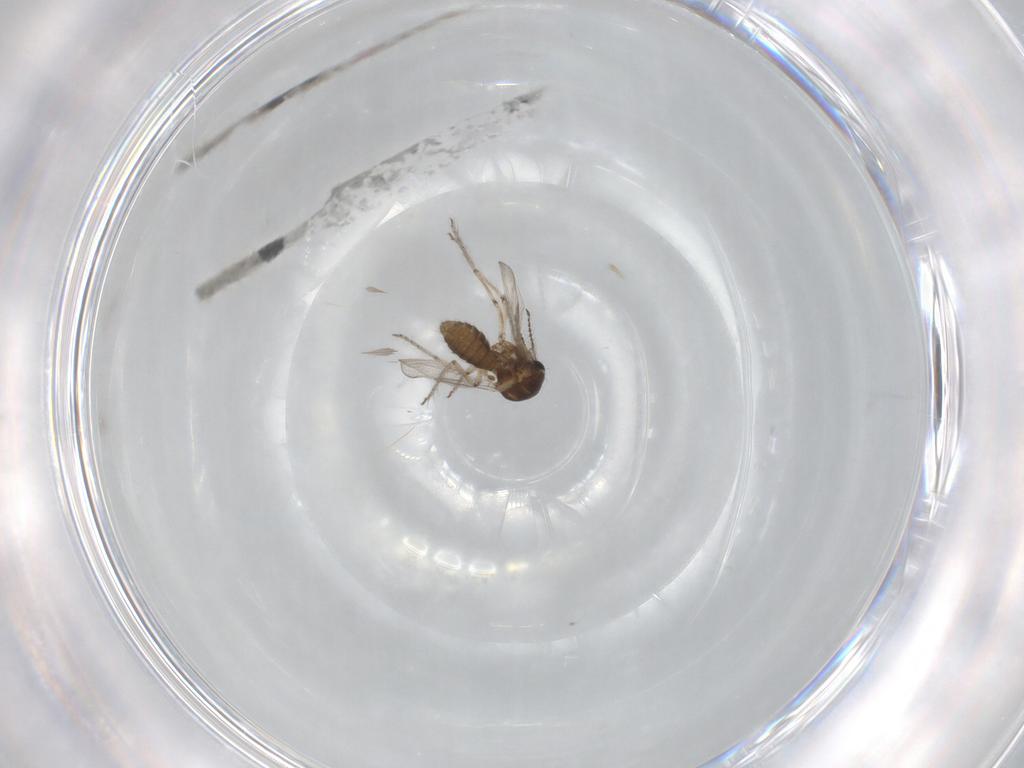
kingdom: Animalia
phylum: Arthropoda
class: Insecta
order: Diptera
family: Ceratopogonidae
